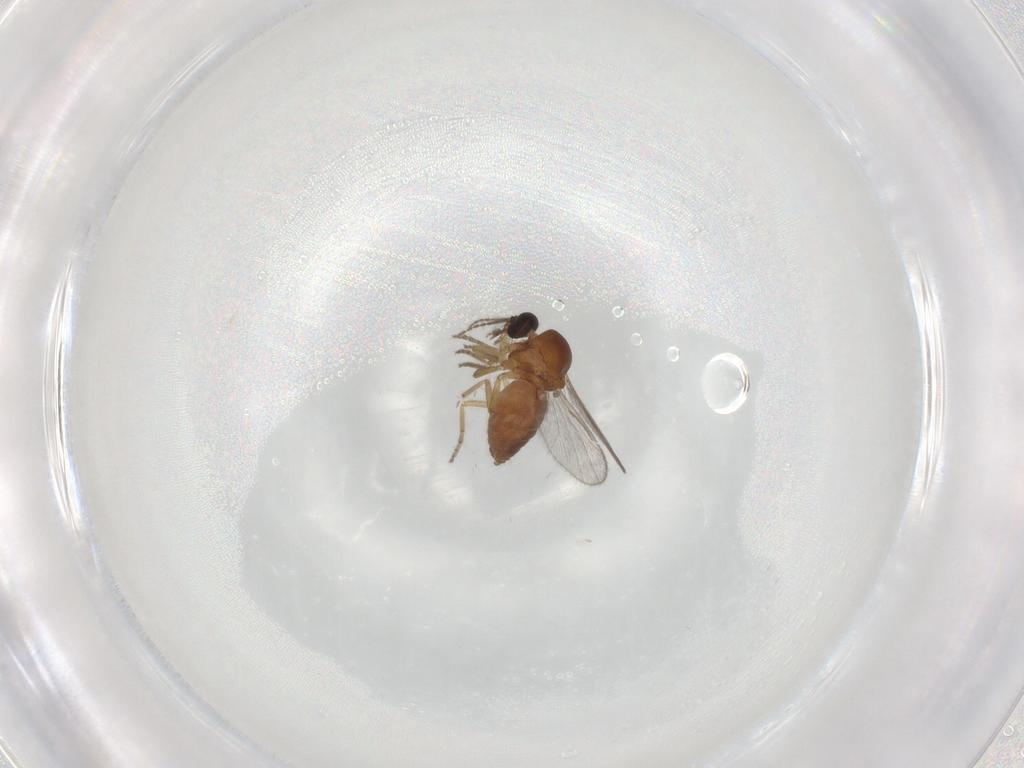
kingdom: Animalia
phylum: Arthropoda
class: Insecta
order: Diptera
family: Ceratopogonidae
